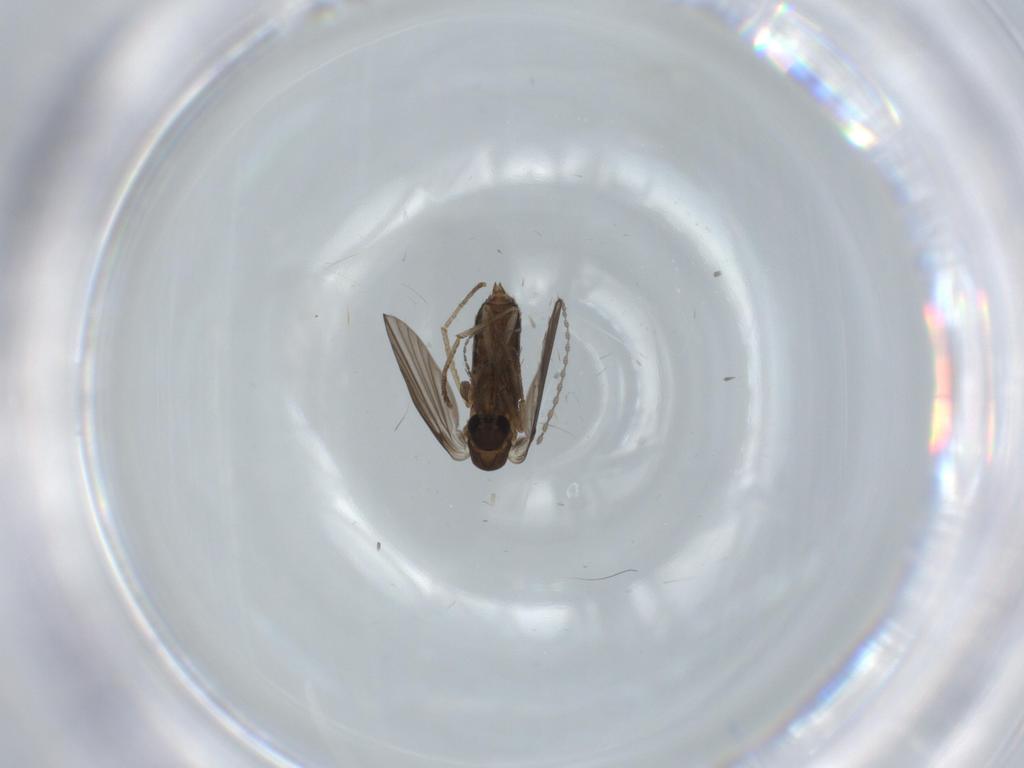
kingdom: Animalia
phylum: Arthropoda
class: Insecta
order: Diptera
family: Psychodidae
